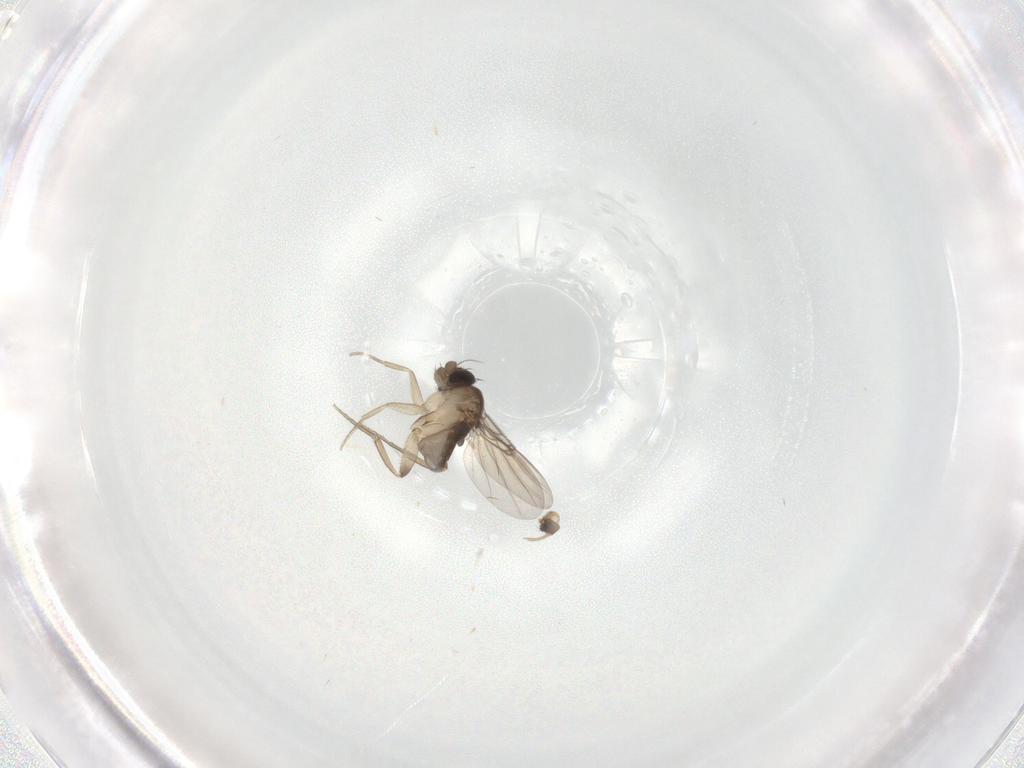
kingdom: Animalia
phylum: Arthropoda
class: Insecta
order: Diptera
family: Phoridae
